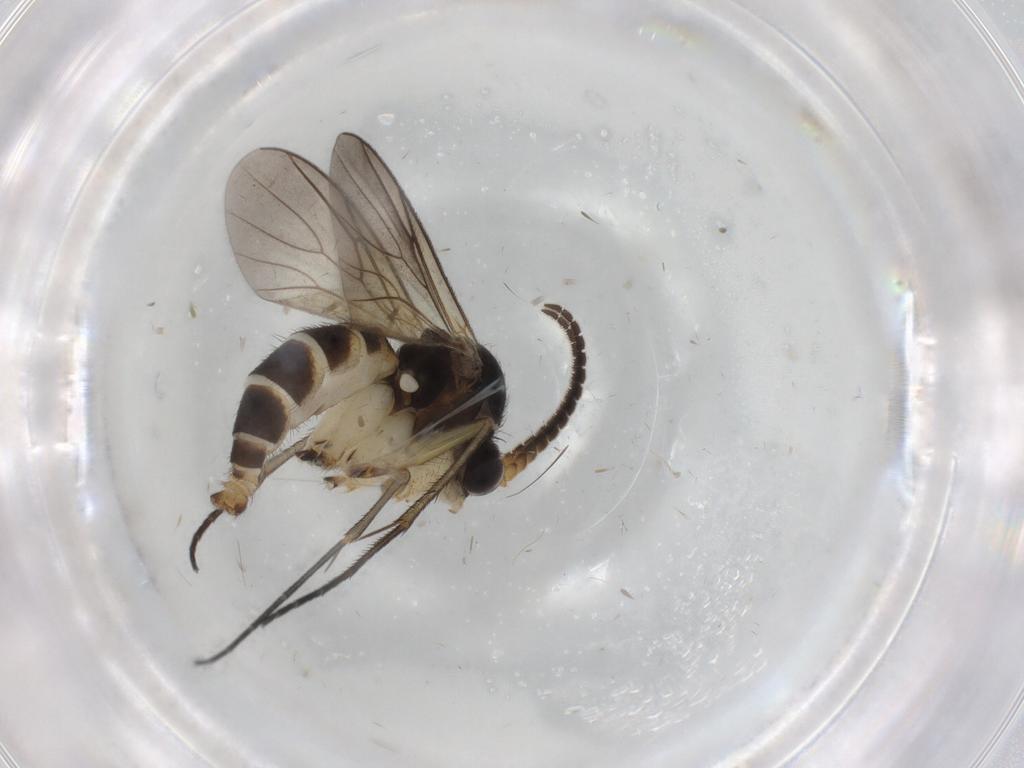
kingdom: Animalia
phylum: Arthropoda
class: Insecta
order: Diptera
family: Muscidae
